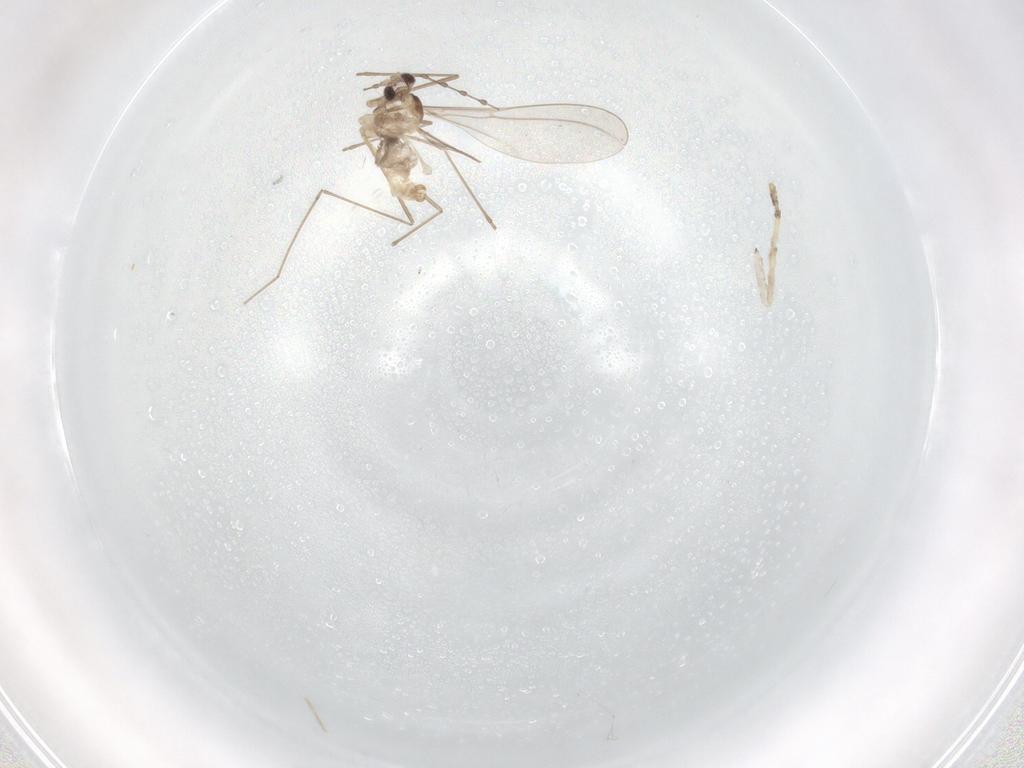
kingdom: Animalia
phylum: Arthropoda
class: Insecta
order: Diptera
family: Psychodidae
